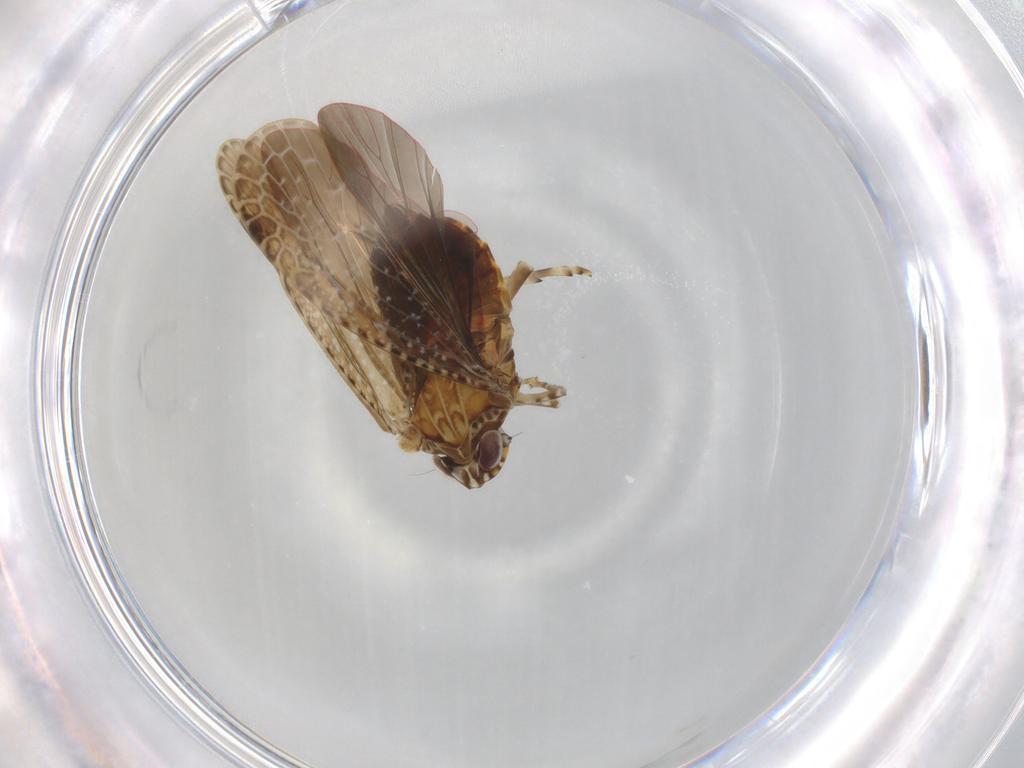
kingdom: Animalia
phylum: Arthropoda
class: Insecta
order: Hemiptera
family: Achilidae
